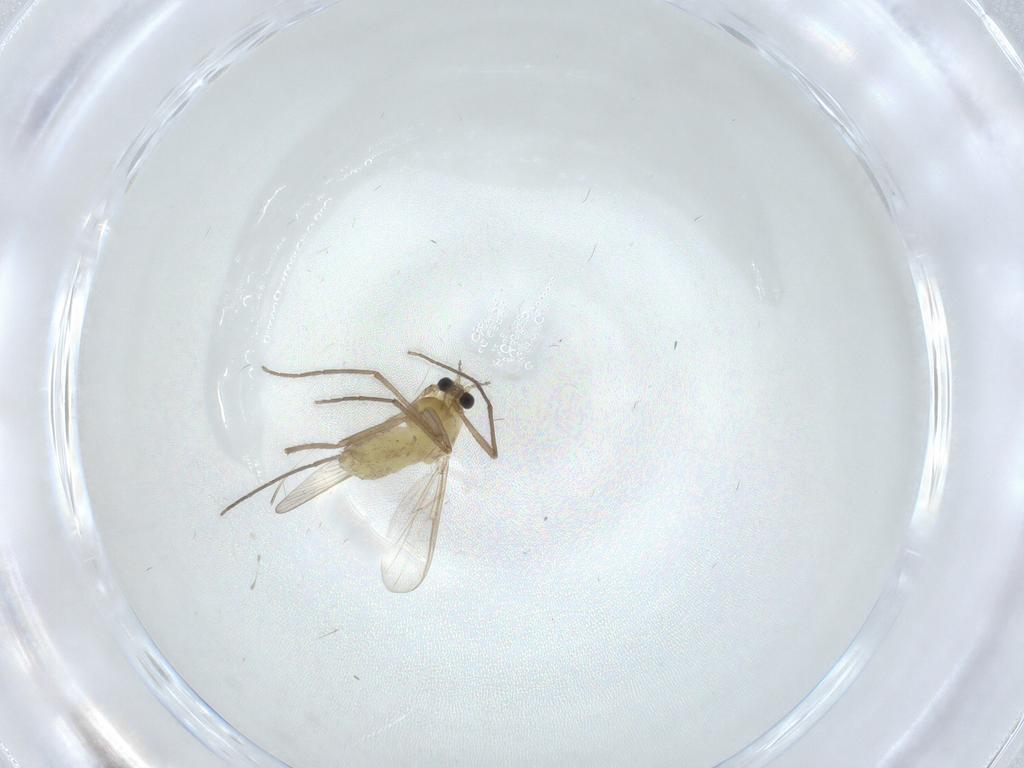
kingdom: Animalia
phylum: Arthropoda
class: Insecta
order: Diptera
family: Chironomidae
